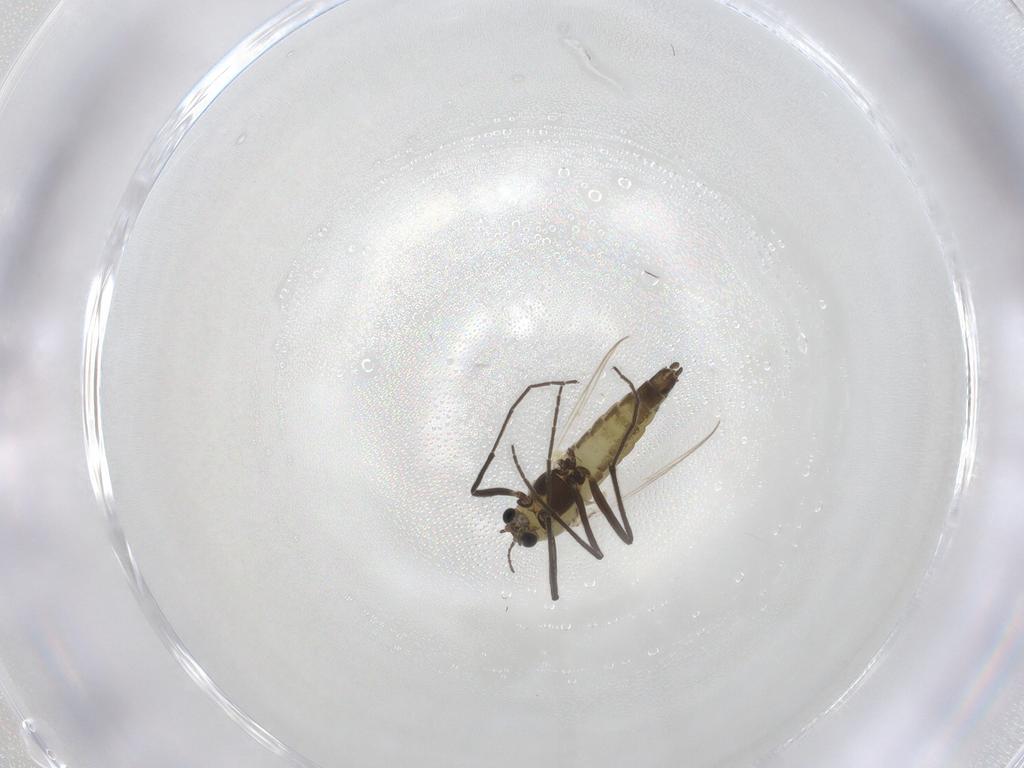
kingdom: Animalia
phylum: Arthropoda
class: Insecta
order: Diptera
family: Chironomidae
